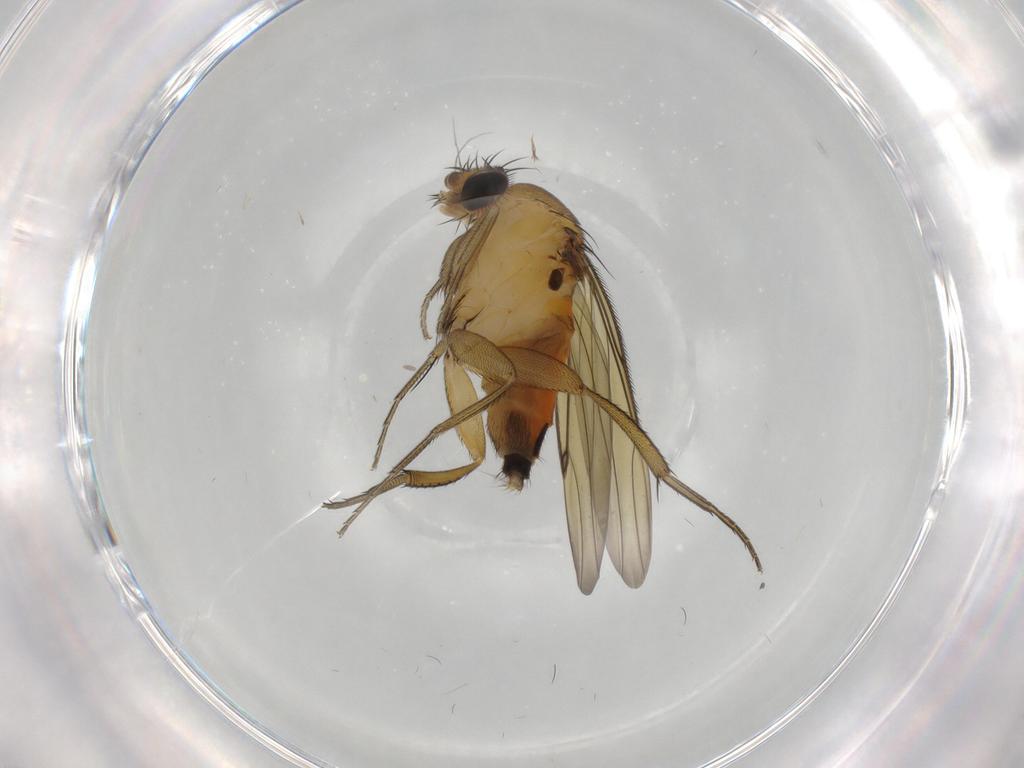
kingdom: Animalia
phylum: Arthropoda
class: Insecta
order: Diptera
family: Phoridae
